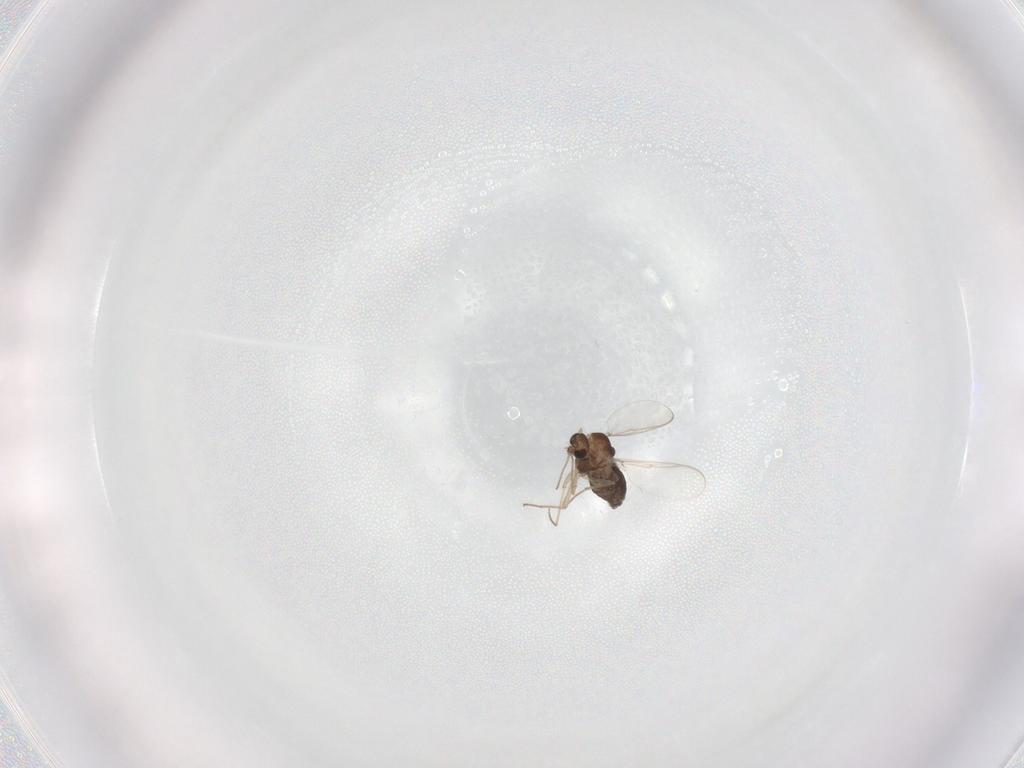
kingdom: Animalia
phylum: Arthropoda
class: Insecta
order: Diptera
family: Chironomidae
